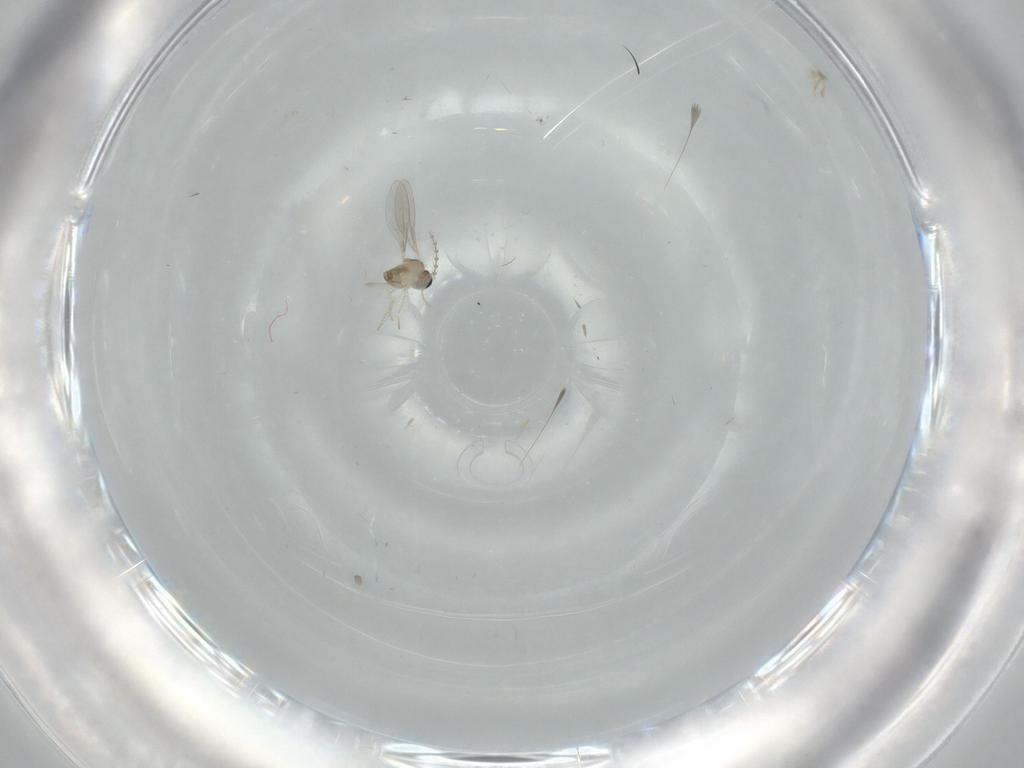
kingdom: Animalia
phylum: Arthropoda
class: Insecta
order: Diptera
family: Cecidomyiidae
